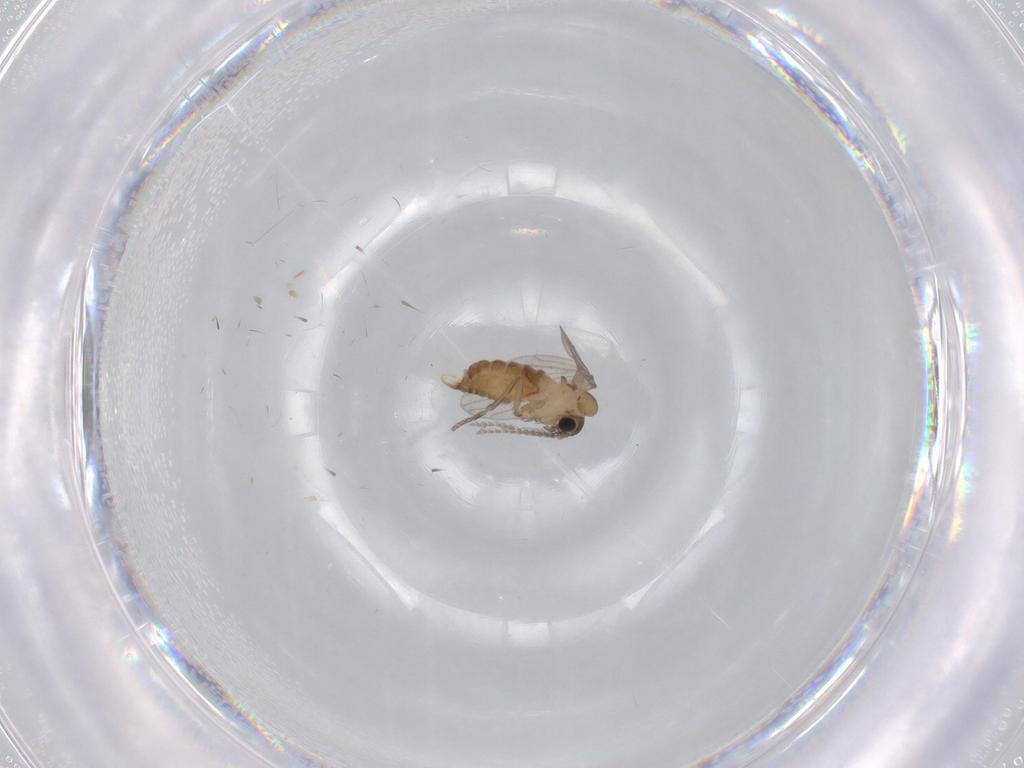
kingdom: Animalia
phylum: Arthropoda
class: Insecta
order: Diptera
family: Psychodidae
